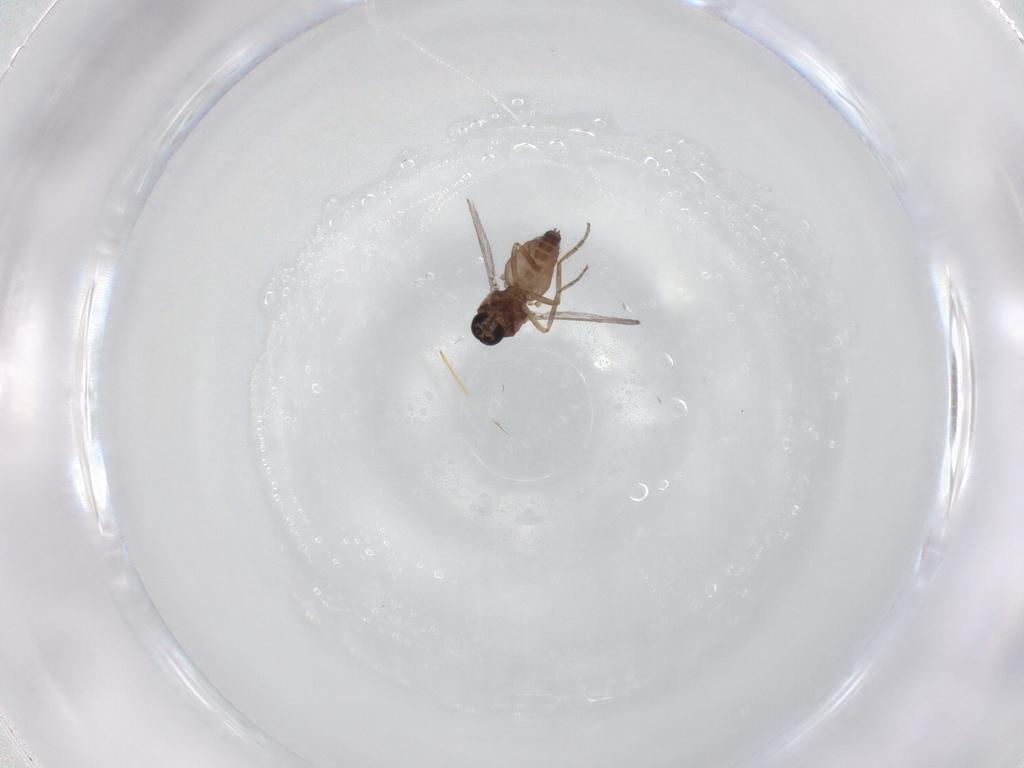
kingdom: Animalia
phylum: Arthropoda
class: Insecta
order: Diptera
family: Ceratopogonidae
